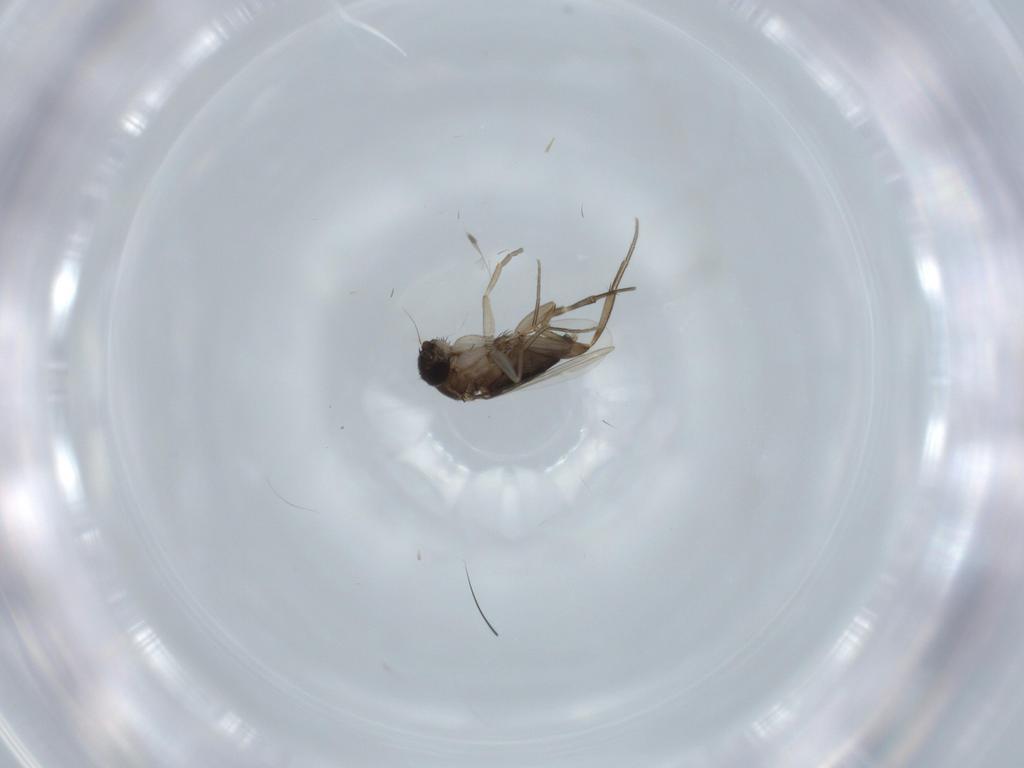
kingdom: Animalia
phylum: Arthropoda
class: Insecta
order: Diptera
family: Phoridae
